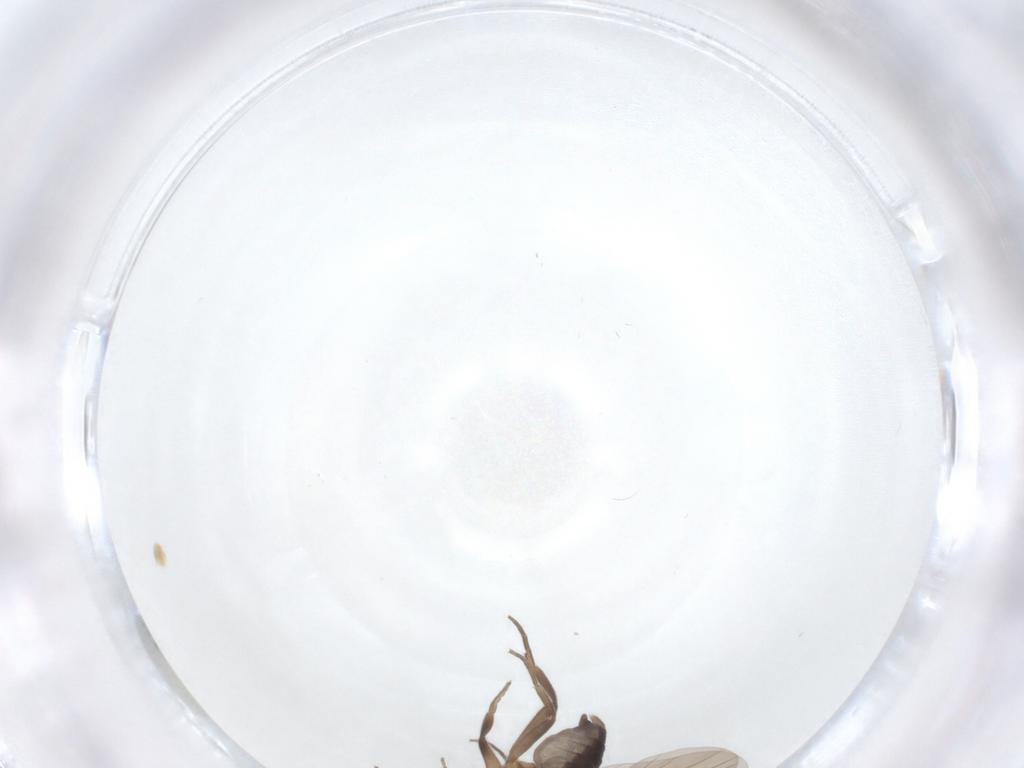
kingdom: Animalia
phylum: Arthropoda
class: Insecta
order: Diptera
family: Phoridae
